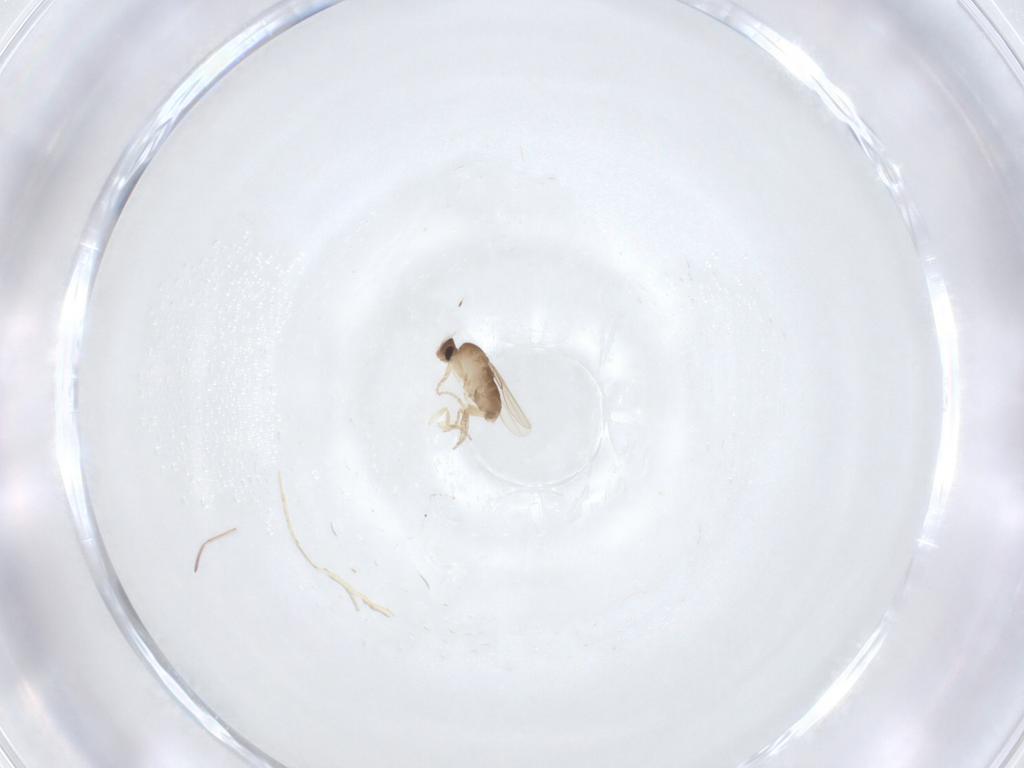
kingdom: Animalia
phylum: Arthropoda
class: Insecta
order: Diptera
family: Phoridae
